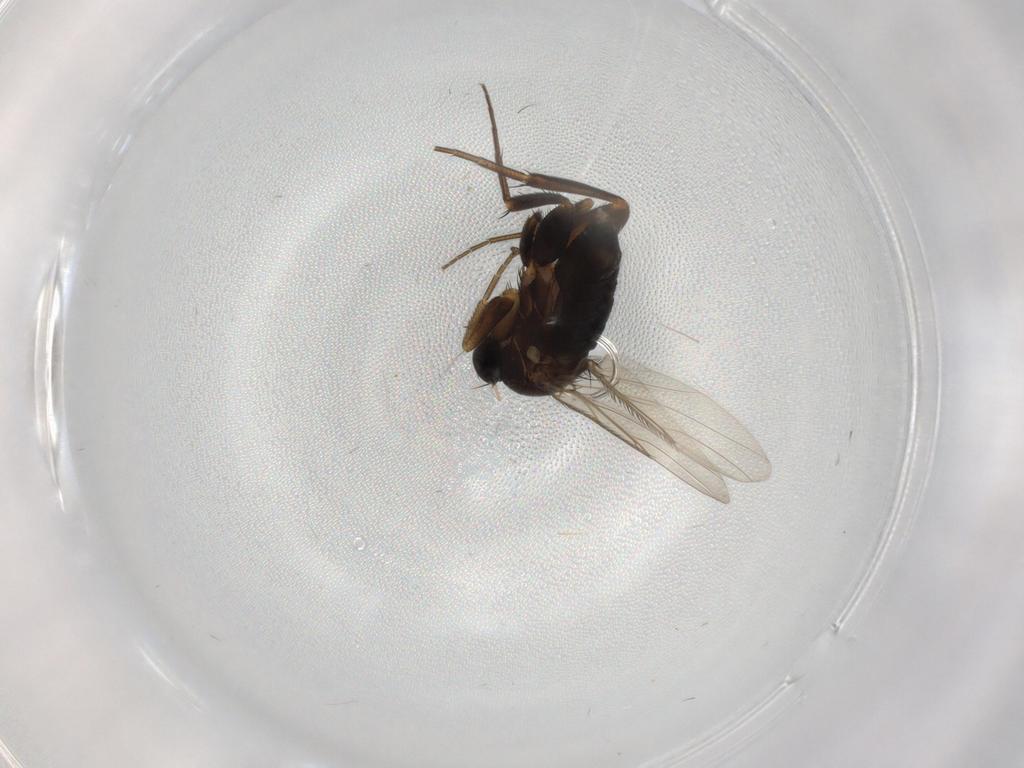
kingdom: Animalia
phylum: Arthropoda
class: Insecta
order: Diptera
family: Phoridae
